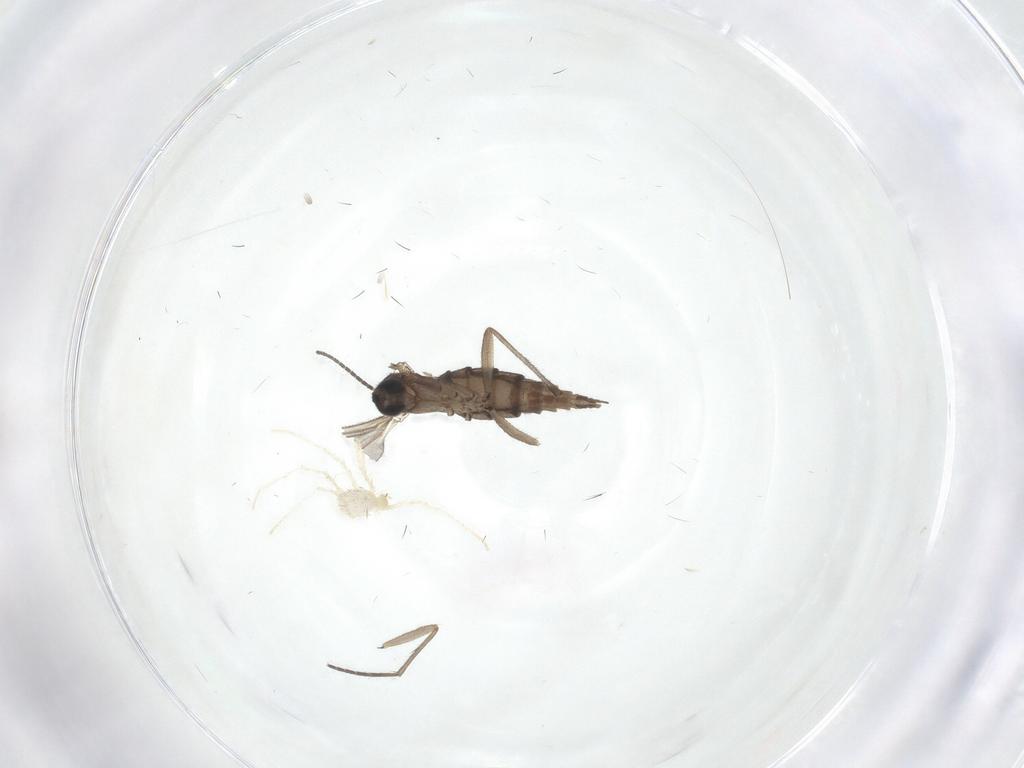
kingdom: Animalia
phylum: Arthropoda
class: Insecta
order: Diptera
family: Sciaridae
